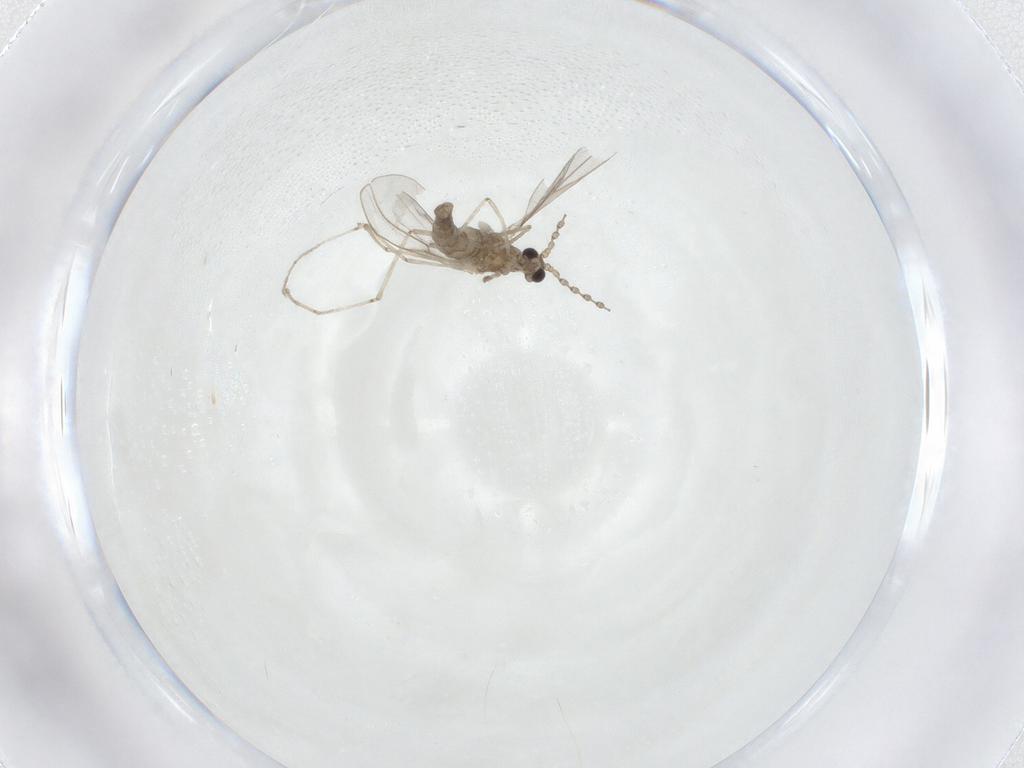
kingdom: Animalia
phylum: Arthropoda
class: Insecta
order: Diptera
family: Cecidomyiidae
